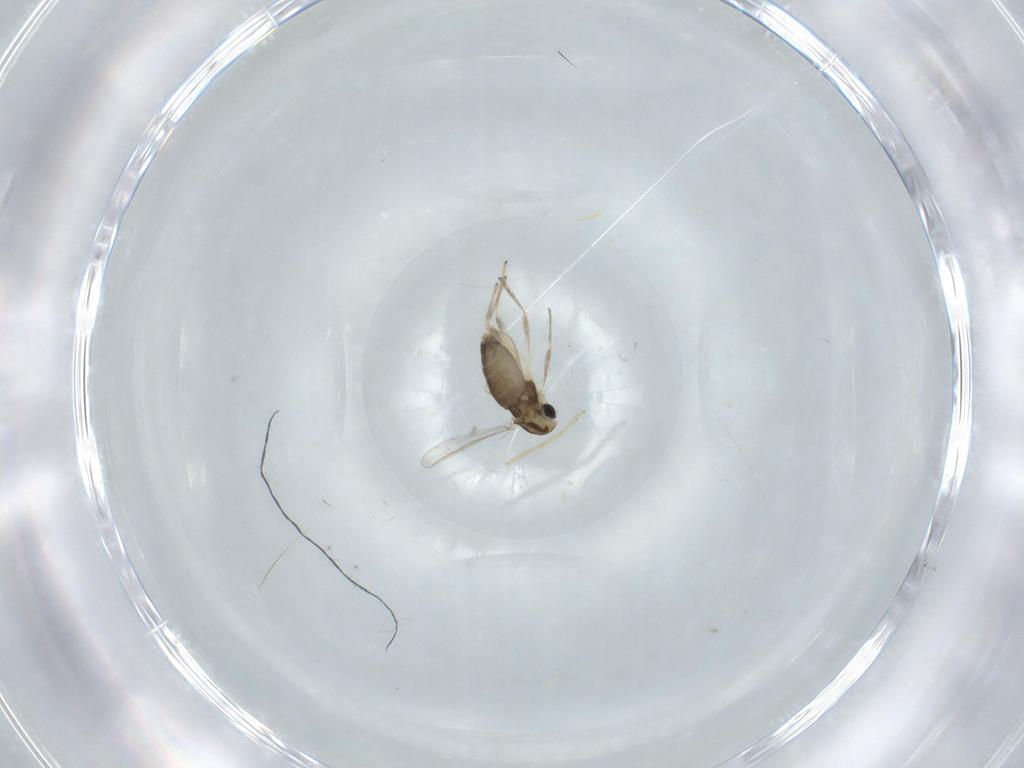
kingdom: Animalia
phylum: Arthropoda
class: Insecta
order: Diptera
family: Chironomidae
